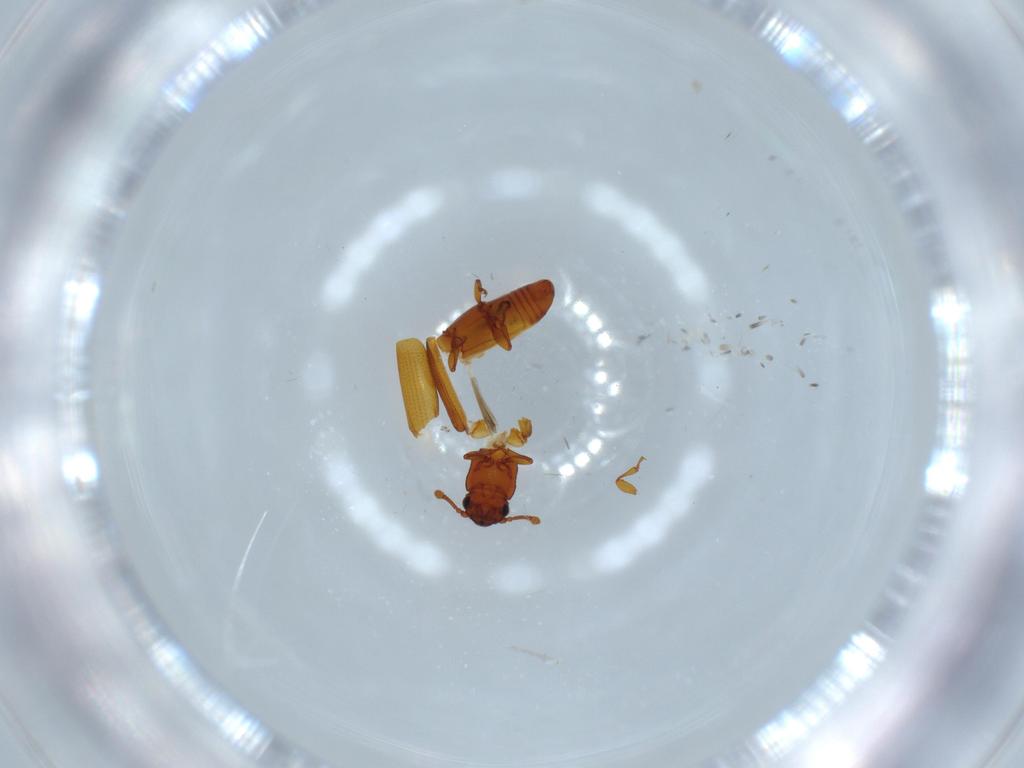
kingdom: Animalia
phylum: Arthropoda
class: Insecta
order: Coleoptera
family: Monotomidae
